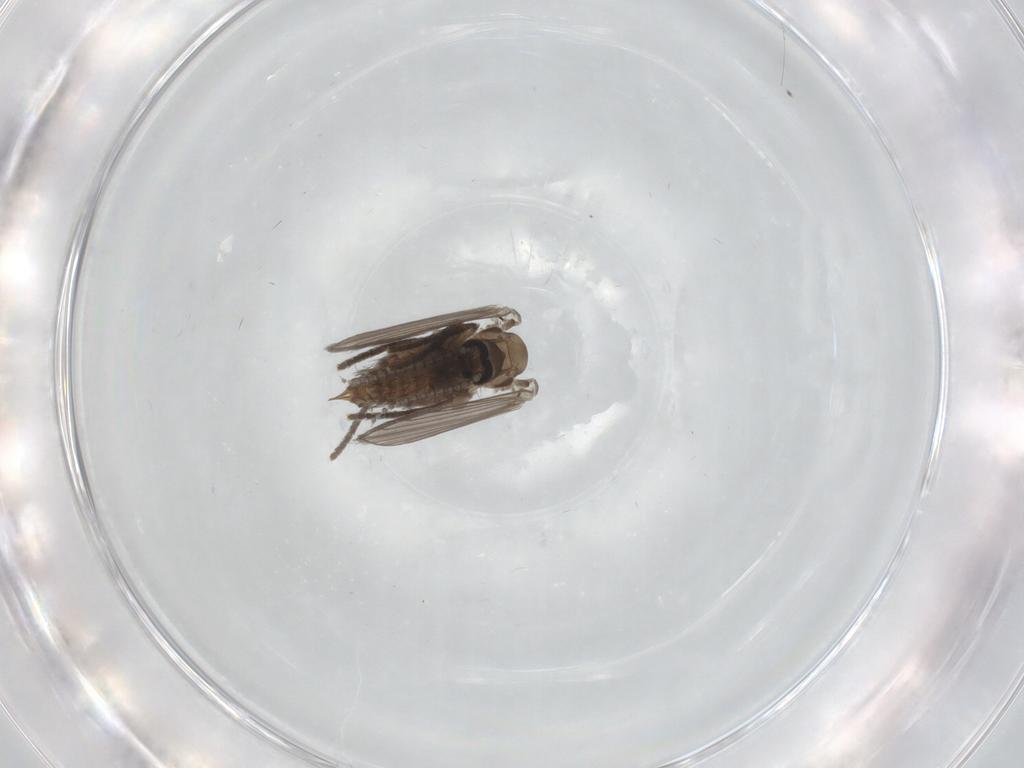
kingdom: Animalia
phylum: Arthropoda
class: Insecta
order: Diptera
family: Psychodidae
